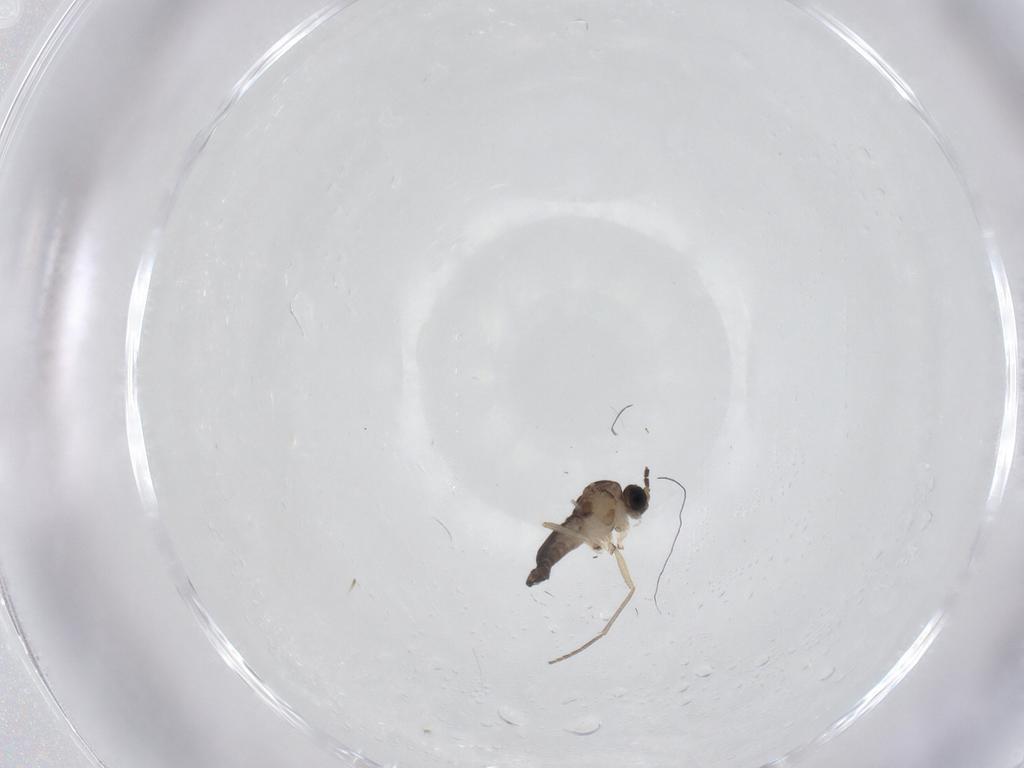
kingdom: Animalia
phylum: Arthropoda
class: Insecta
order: Diptera
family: Sciaridae
